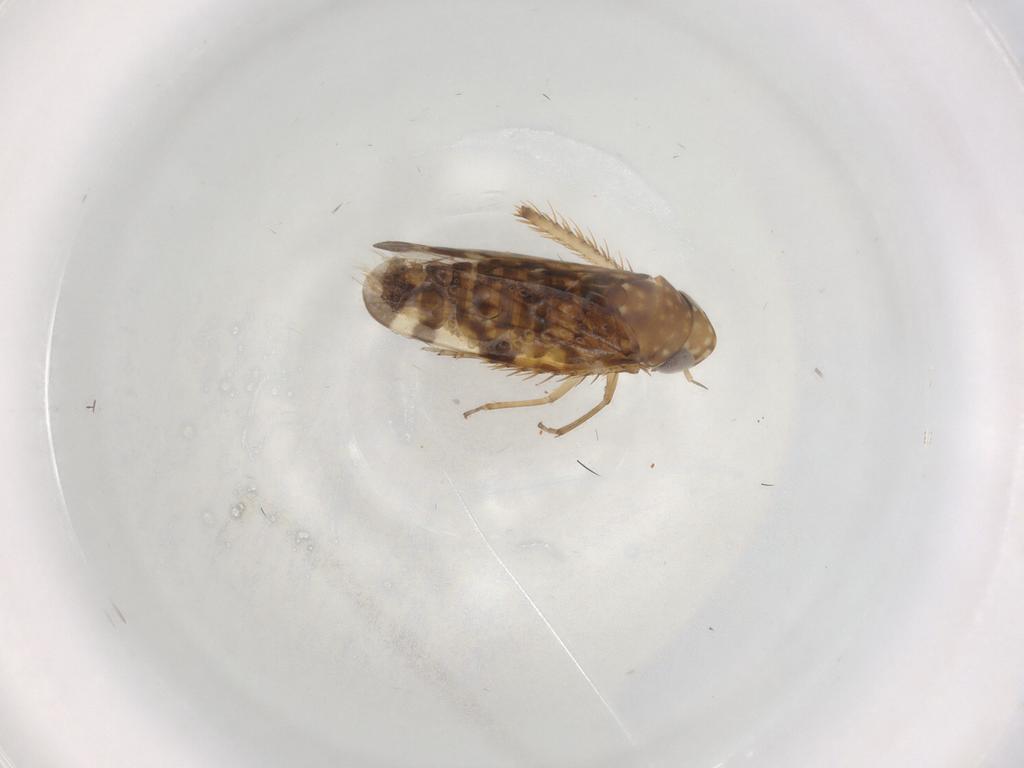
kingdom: Animalia
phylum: Arthropoda
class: Insecta
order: Hemiptera
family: Cicadellidae
